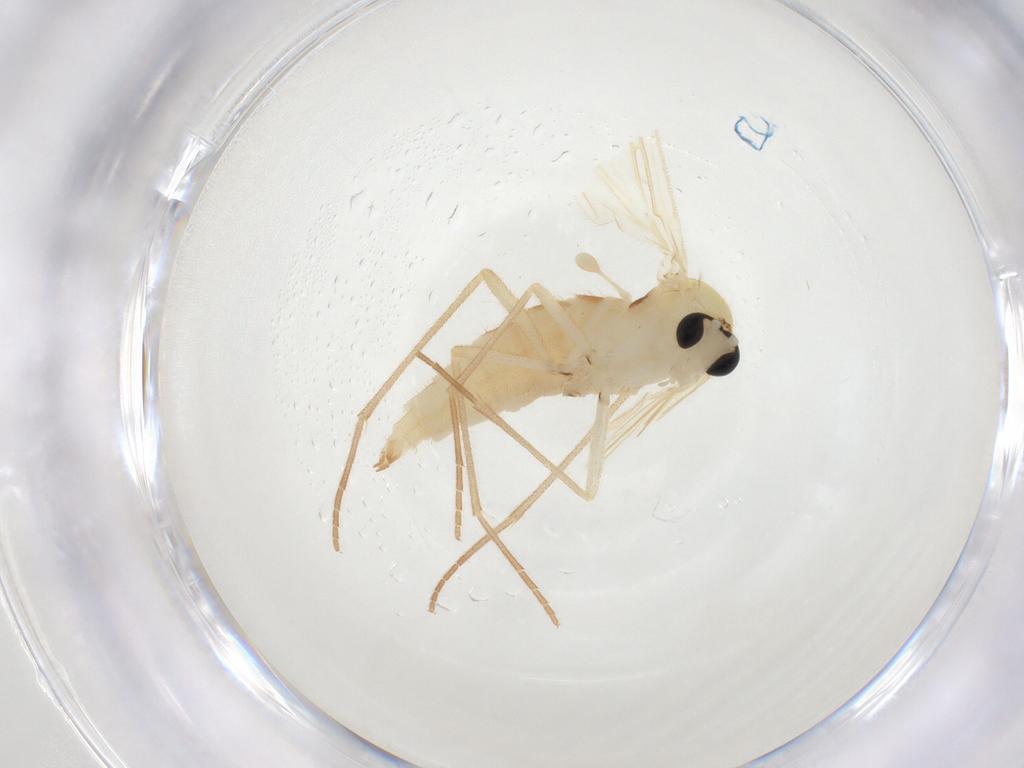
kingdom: Animalia
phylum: Arthropoda
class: Insecta
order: Diptera
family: Sciaridae
